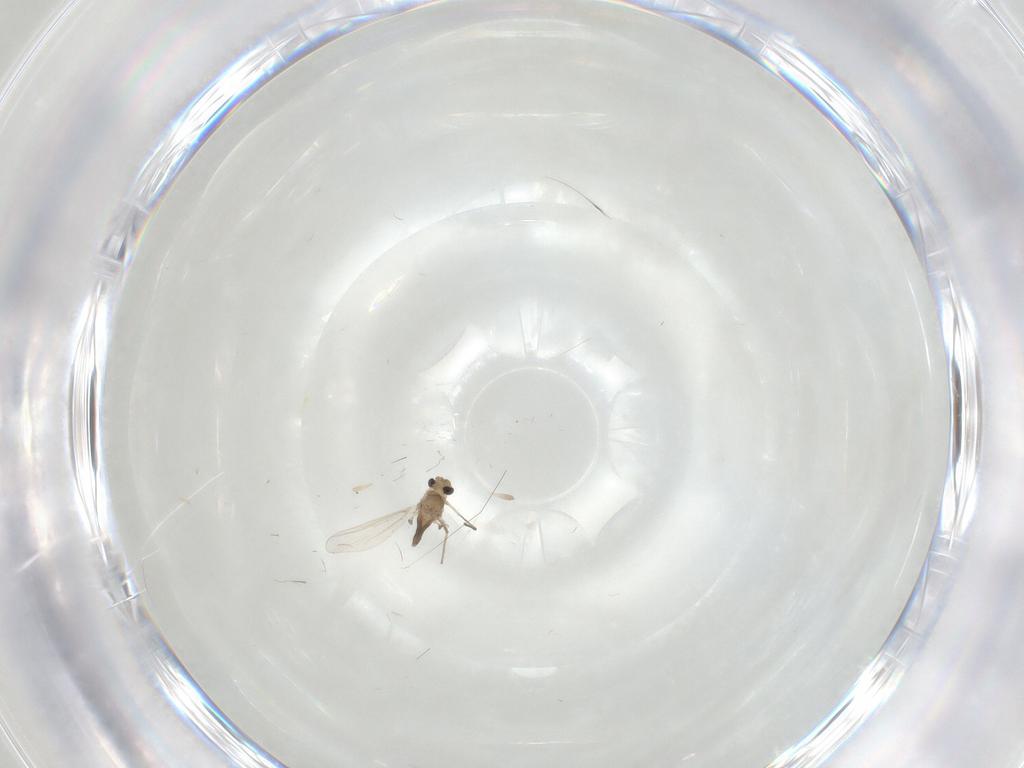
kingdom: Animalia
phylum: Arthropoda
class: Insecta
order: Diptera
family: Chironomidae
